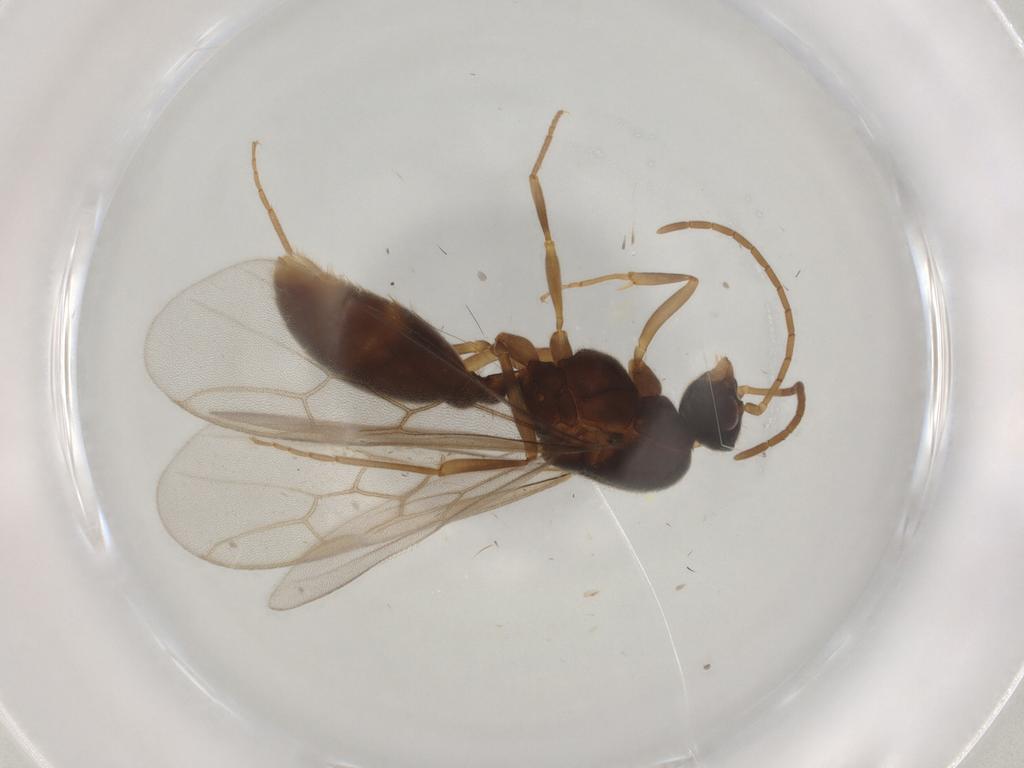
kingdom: Animalia
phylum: Arthropoda
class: Insecta
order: Hymenoptera
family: Formicidae
